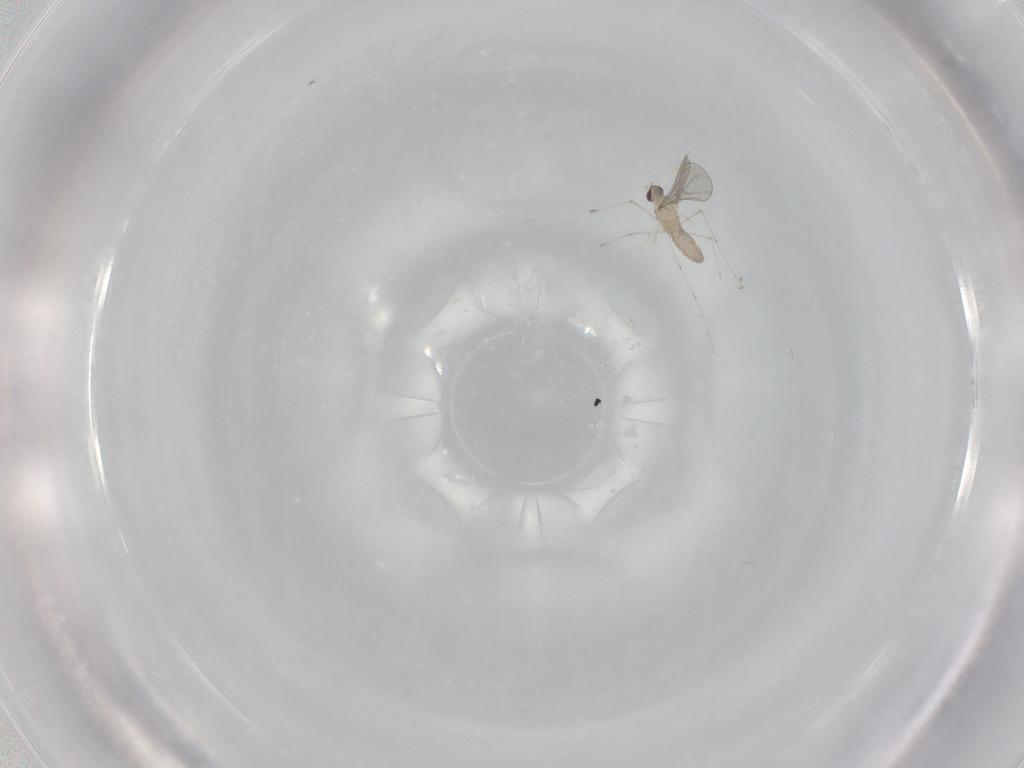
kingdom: Animalia
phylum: Arthropoda
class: Insecta
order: Diptera
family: Cecidomyiidae
